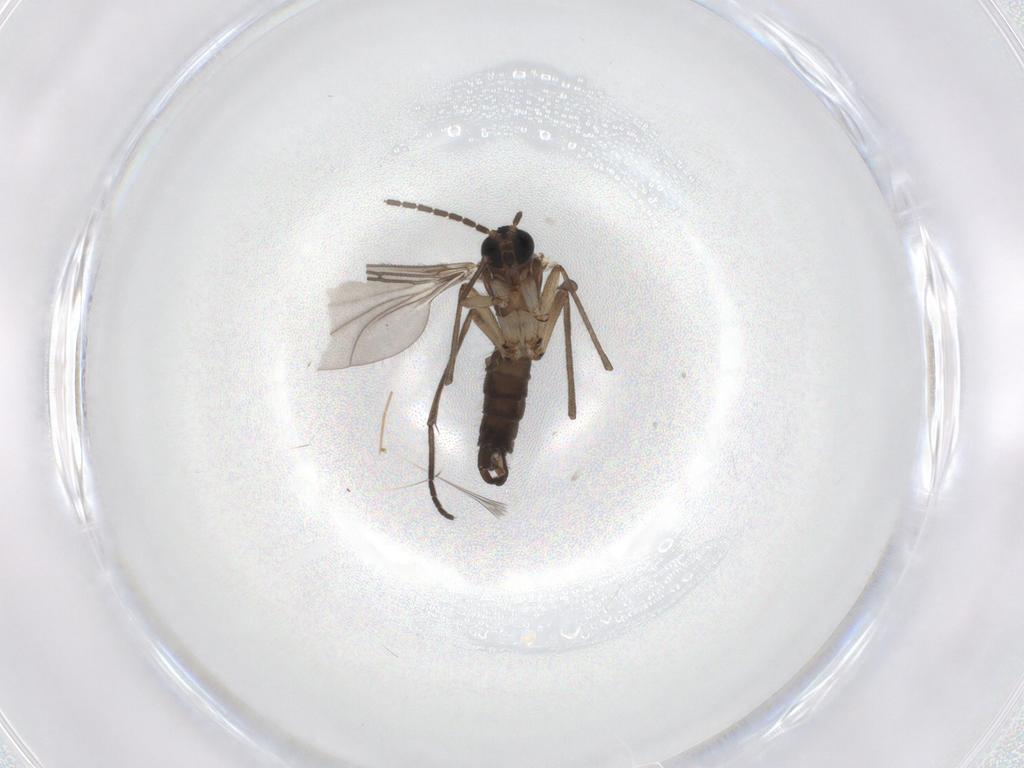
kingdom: Animalia
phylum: Arthropoda
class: Insecta
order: Diptera
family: Sciaridae
